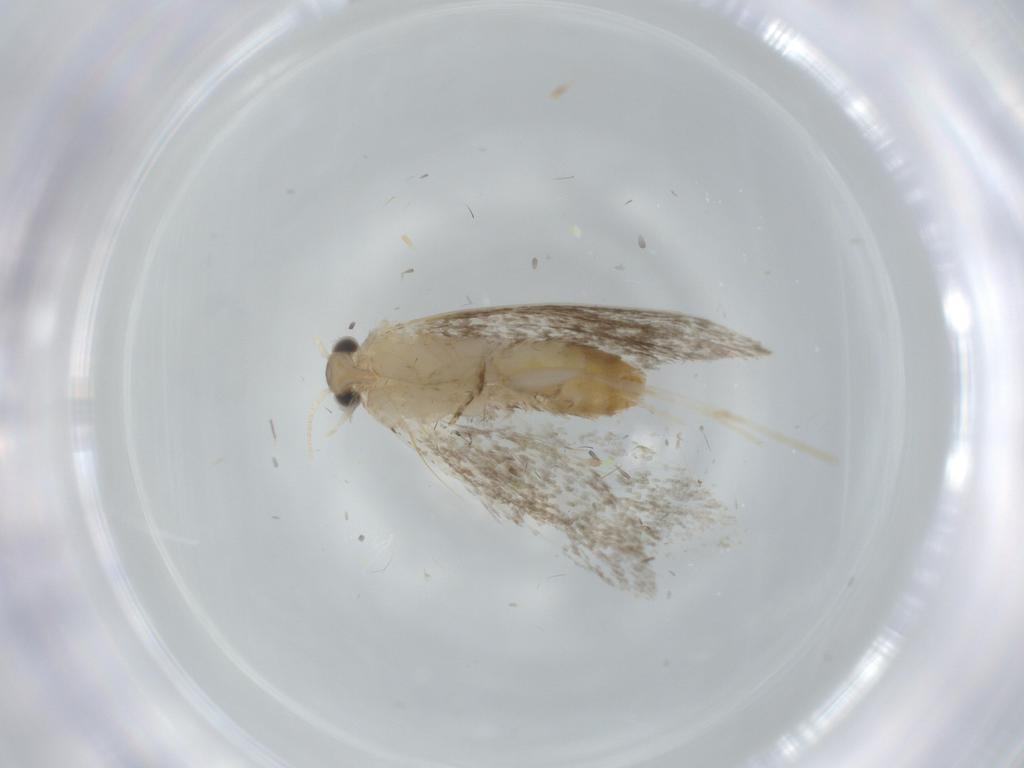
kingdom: Animalia
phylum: Arthropoda
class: Insecta
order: Lepidoptera
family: Tineidae
